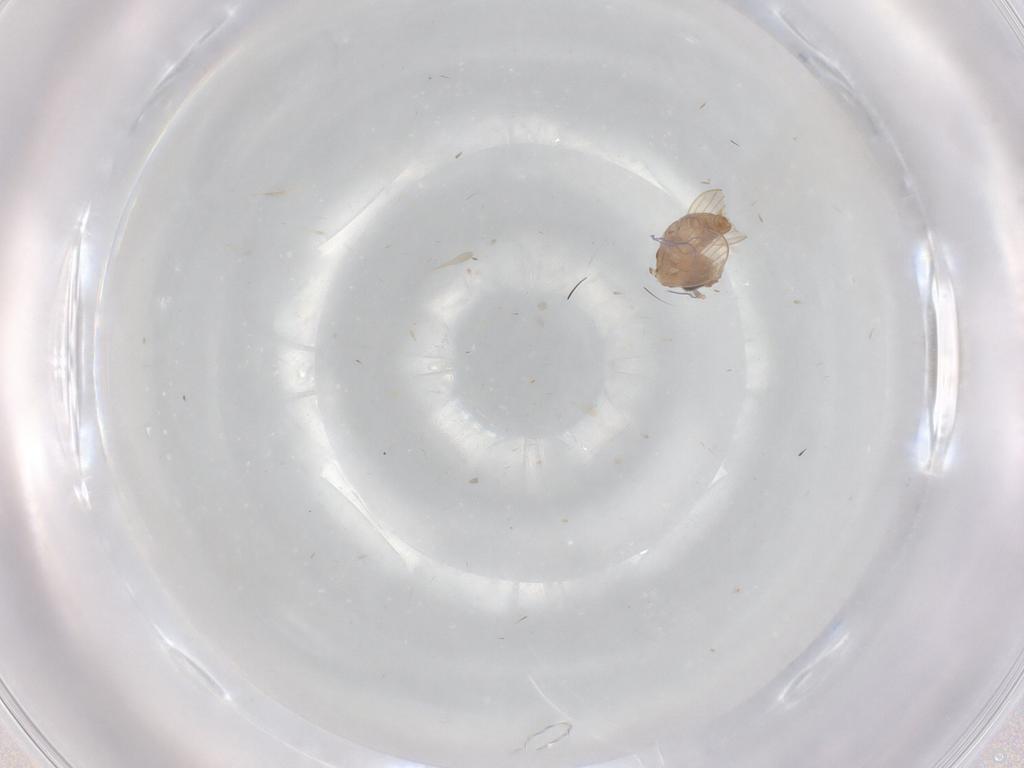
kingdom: Animalia
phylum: Arthropoda
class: Insecta
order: Diptera
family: Sciaridae
